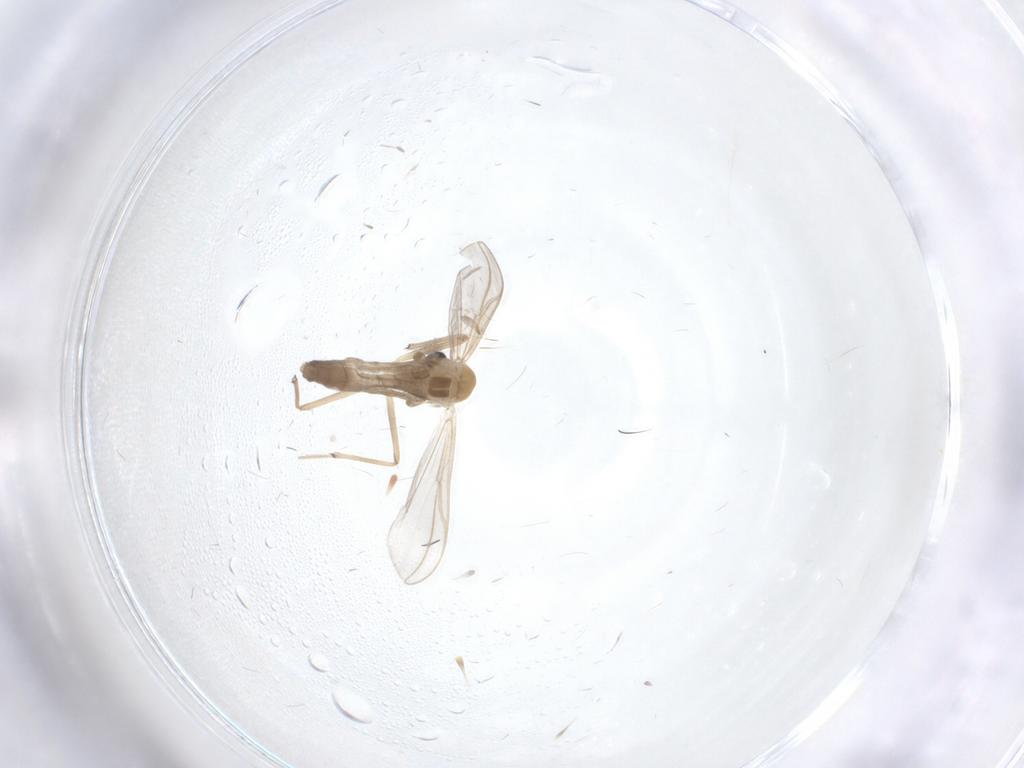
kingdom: Animalia
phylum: Arthropoda
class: Insecta
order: Diptera
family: Chironomidae
